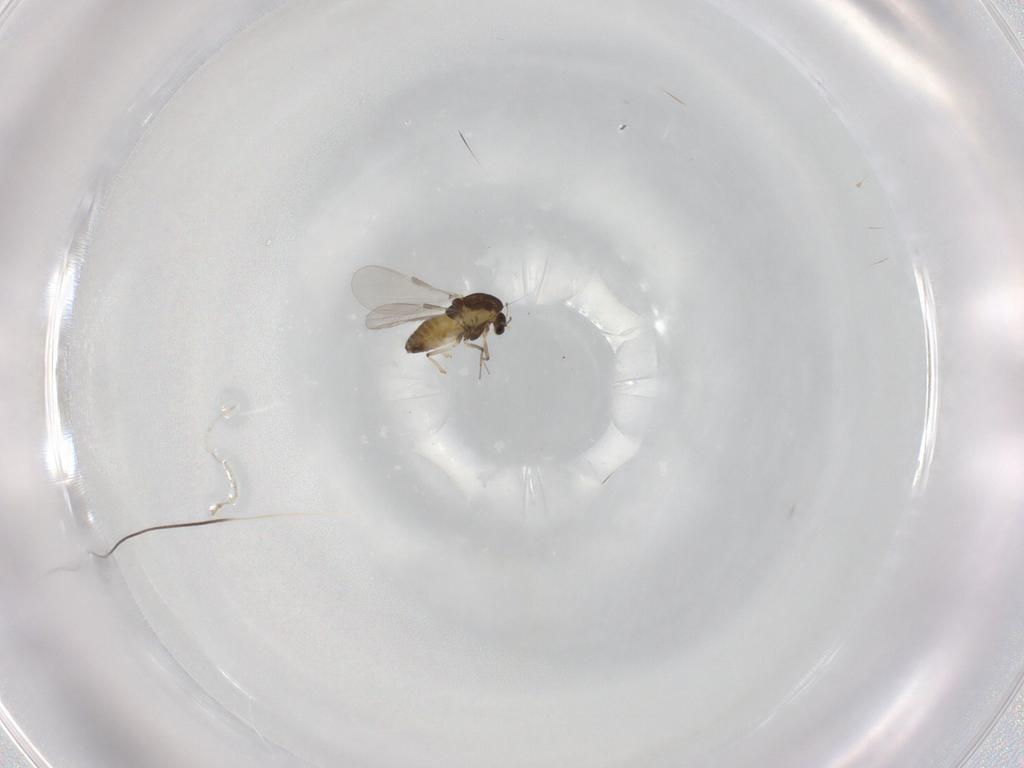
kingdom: Animalia
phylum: Arthropoda
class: Insecta
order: Diptera
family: Chironomidae
